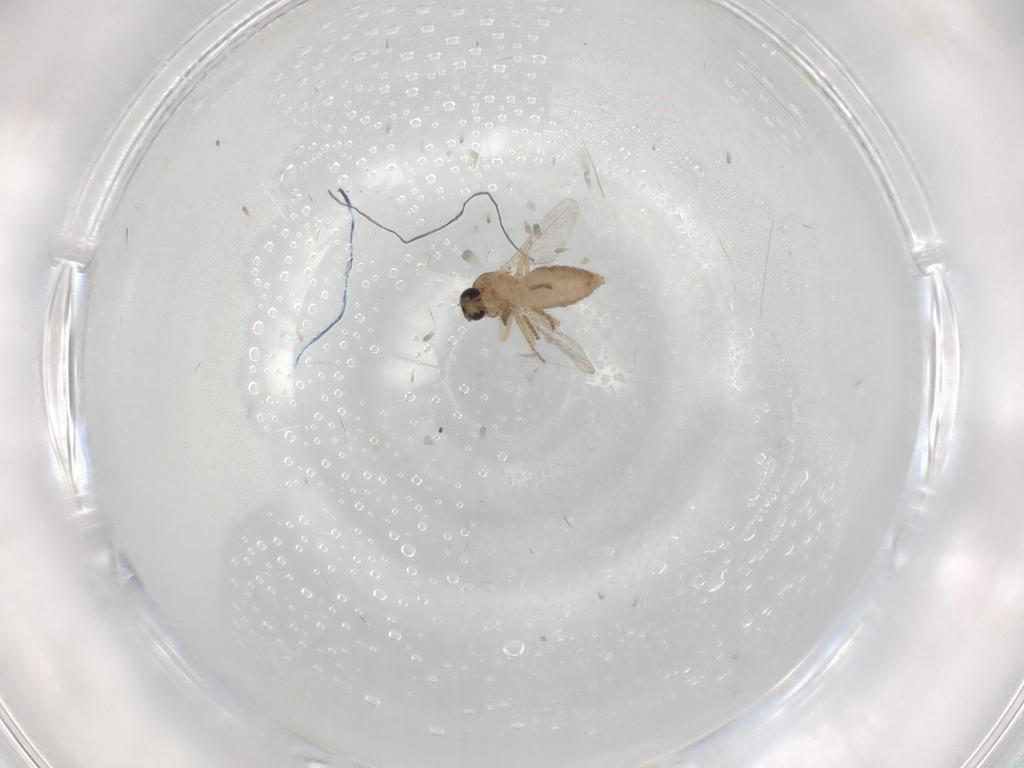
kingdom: Animalia
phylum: Arthropoda
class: Insecta
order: Diptera
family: Ceratopogonidae
